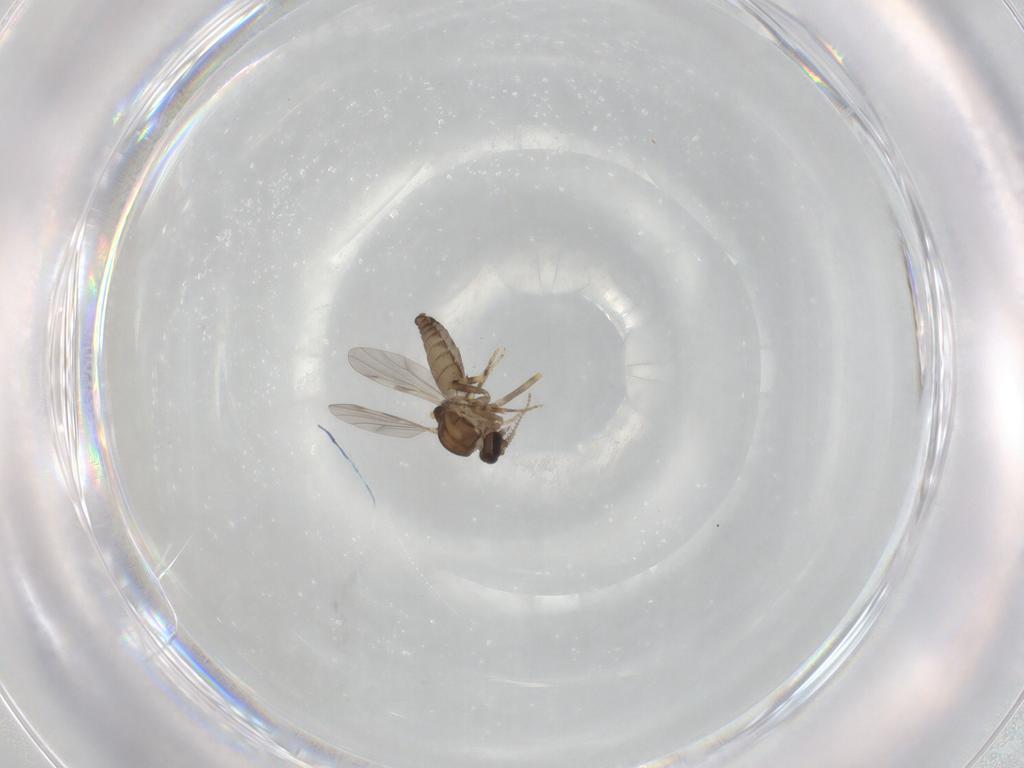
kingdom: Animalia
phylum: Arthropoda
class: Insecta
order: Diptera
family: Ceratopogonidae
